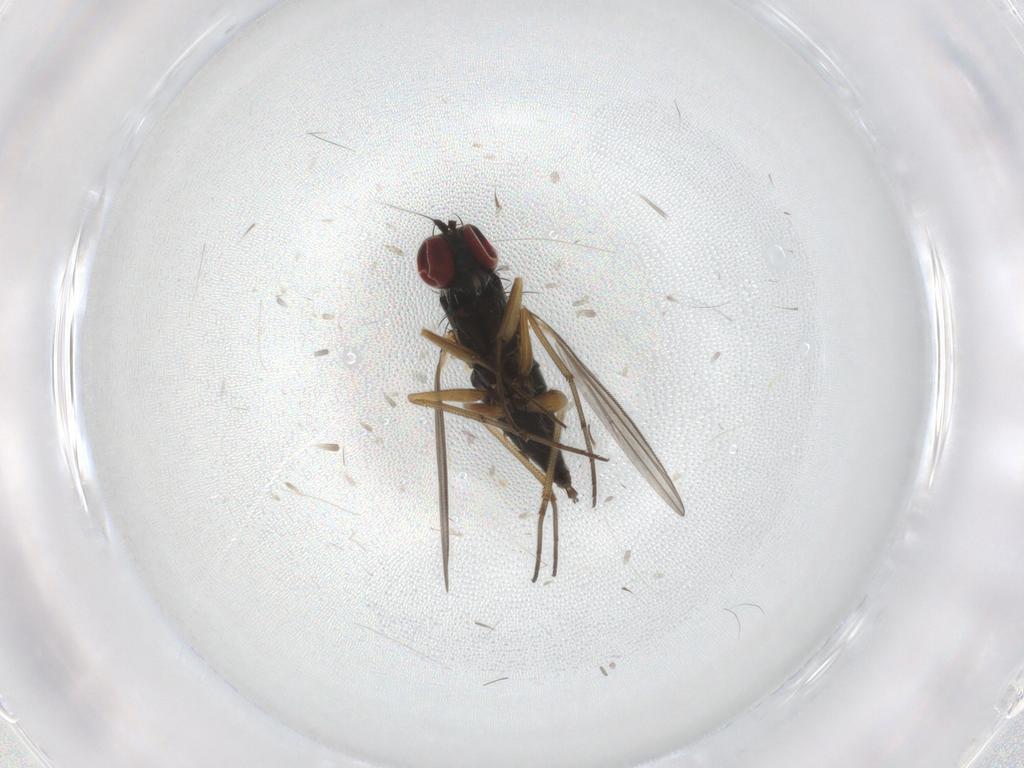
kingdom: Animalia
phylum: Arthropoda
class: Insecta
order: Diptera
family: Dolichopodidae
